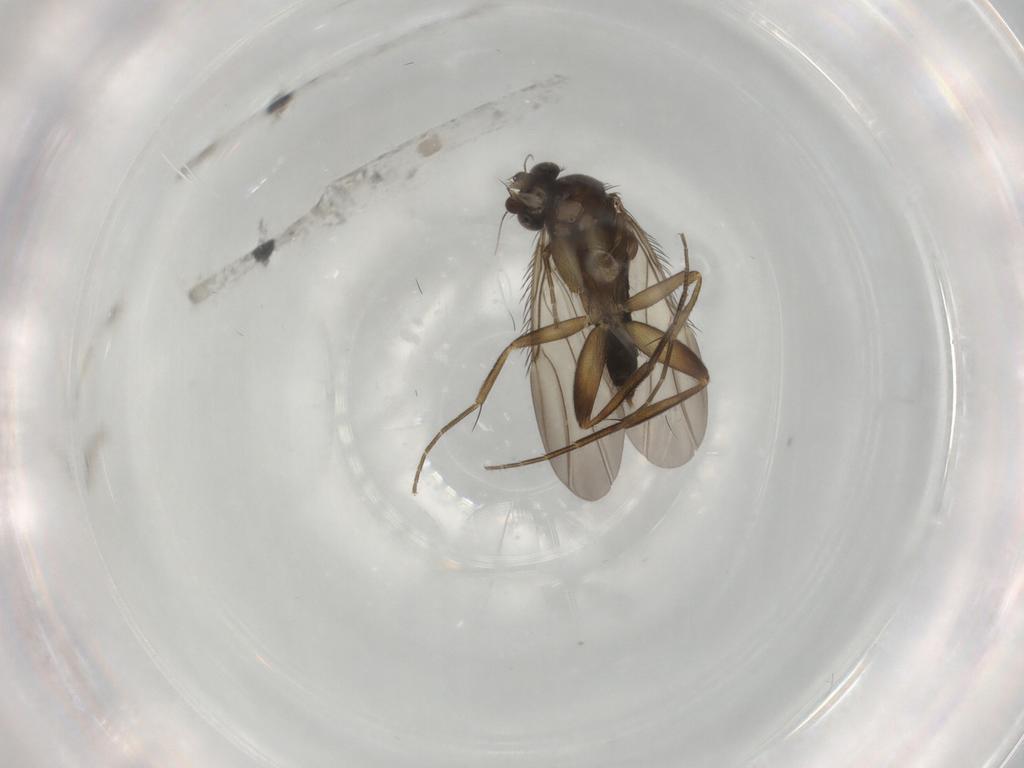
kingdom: Animalia
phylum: Arthropoda
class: Insecta
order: Diptera
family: Phoridae
